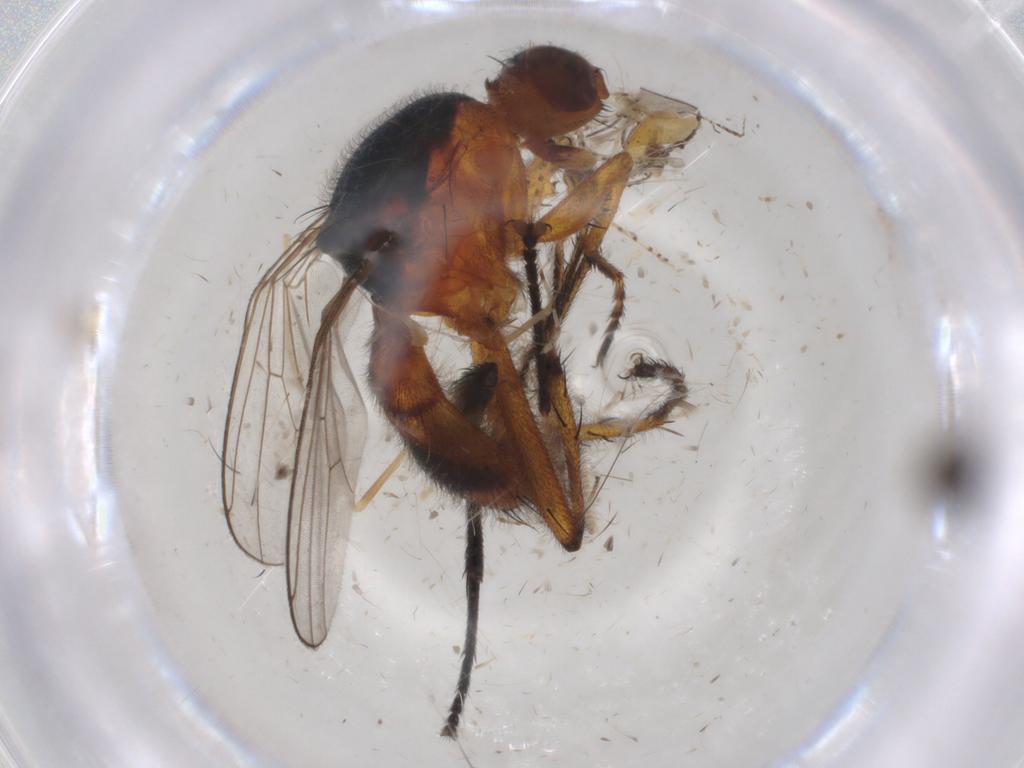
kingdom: Animalia
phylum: Arthropoda
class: Insecta
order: Diptera
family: Ceratopogonidae
